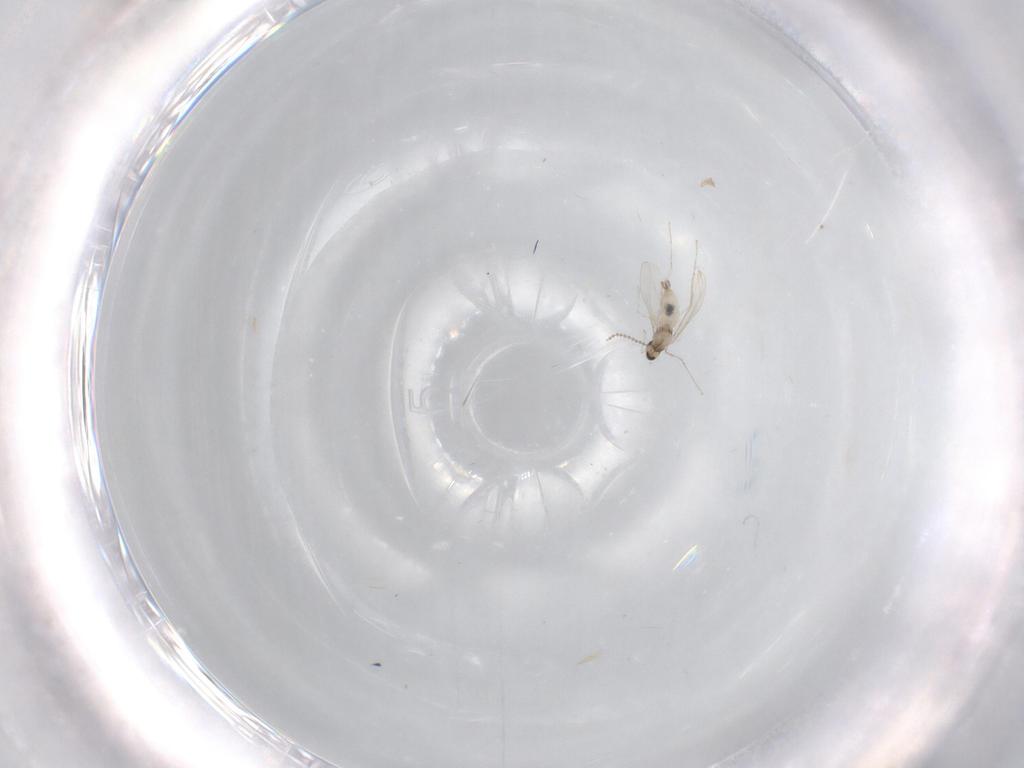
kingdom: Animalia
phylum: Arthropoda
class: Insecta
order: Diptera
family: Cecidomyiidae
